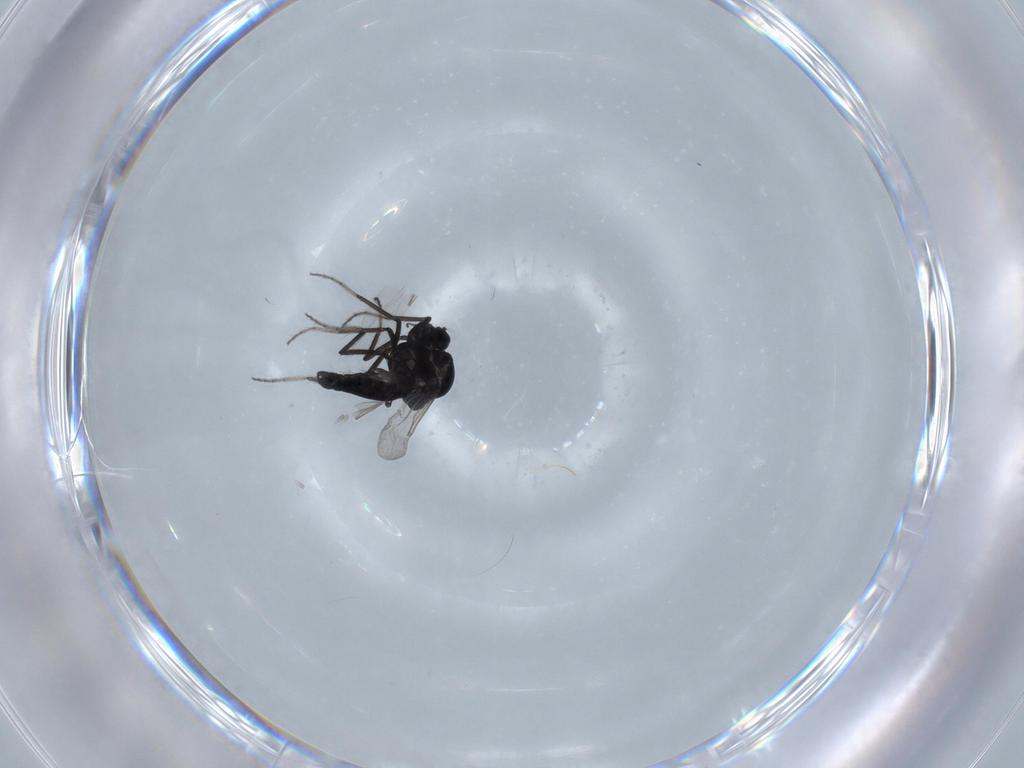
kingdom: Animalia
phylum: Arthropoda
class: Insecta
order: Diptera
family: Ceratopogonidae
